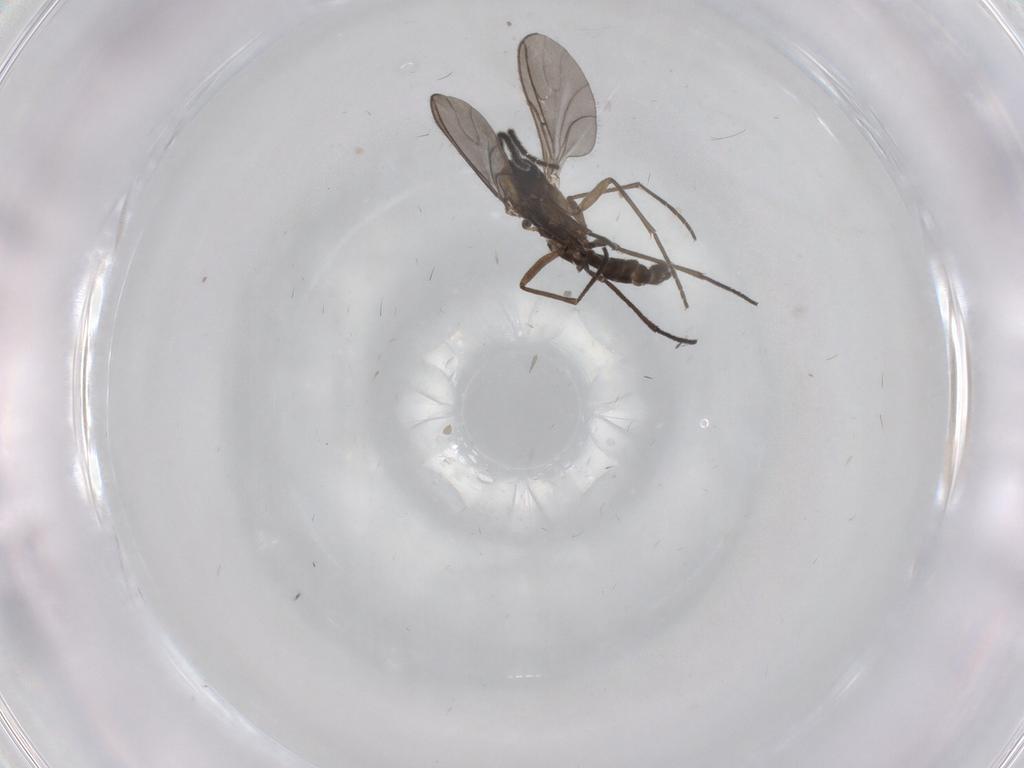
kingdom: Animalia
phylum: Arthropoda
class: Insecta
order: Diptera
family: Sciaridae
